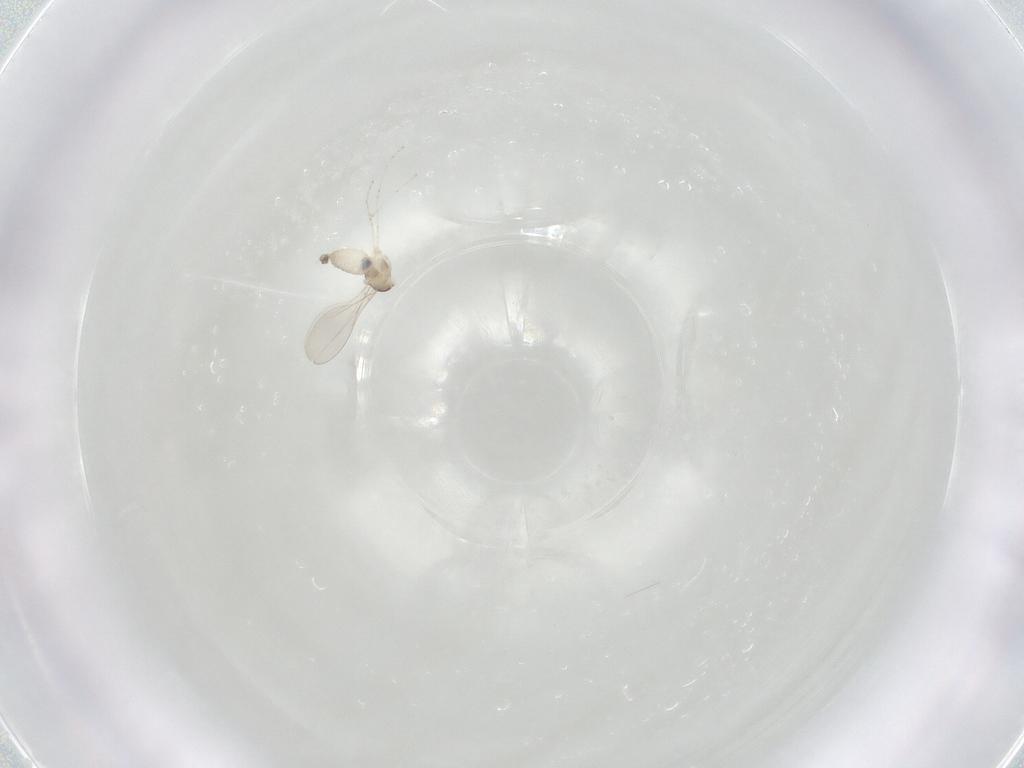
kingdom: Animalia
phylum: Arthropoda
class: Insecta
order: Diptera
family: Cecidomyiidae
